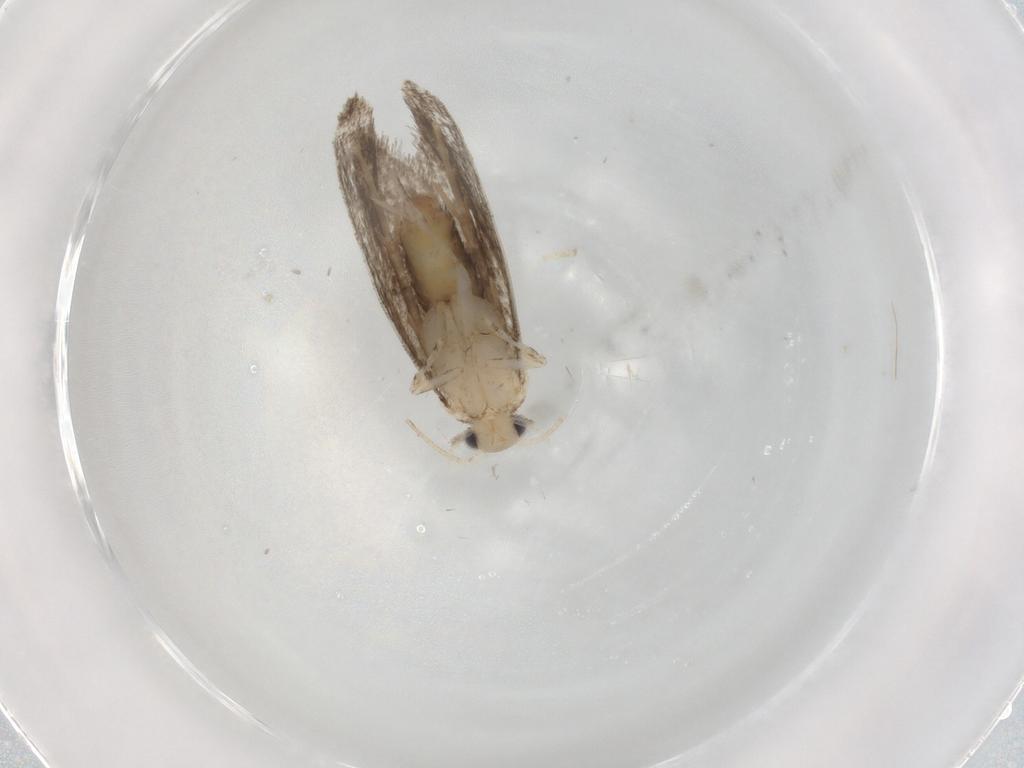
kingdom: Animalia
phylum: Arthropoda
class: Insecta
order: Lepidoptera
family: Tineidae
